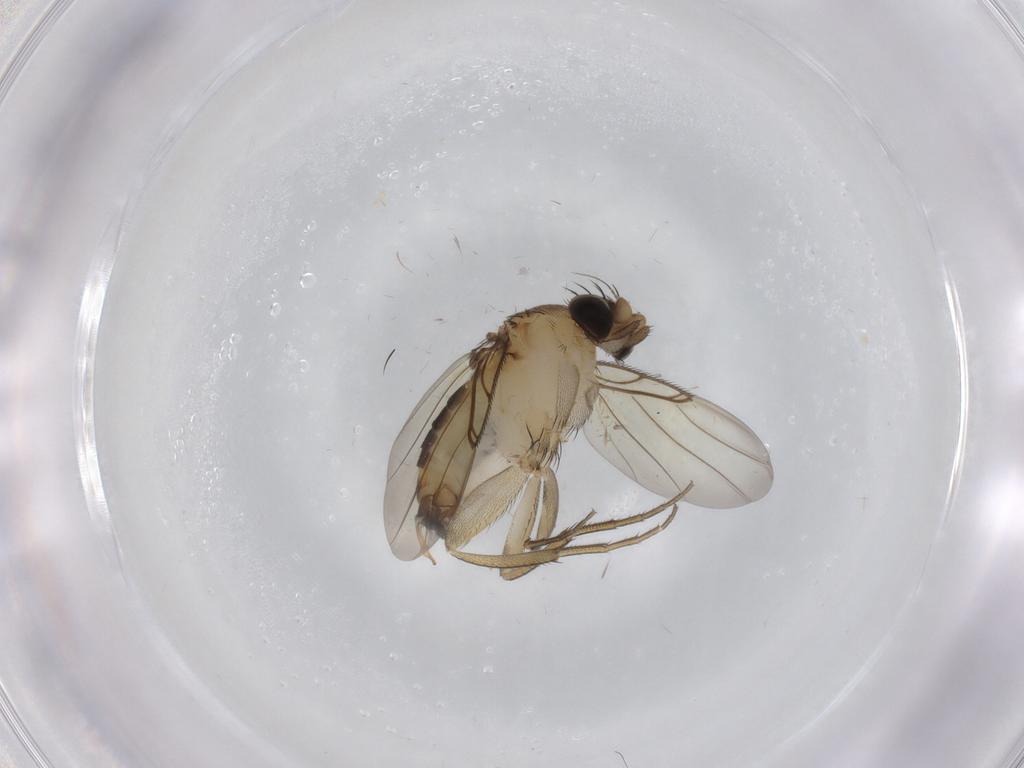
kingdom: Animalia
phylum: Arthropoda
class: Insecta
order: Diptera
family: Phoridae
